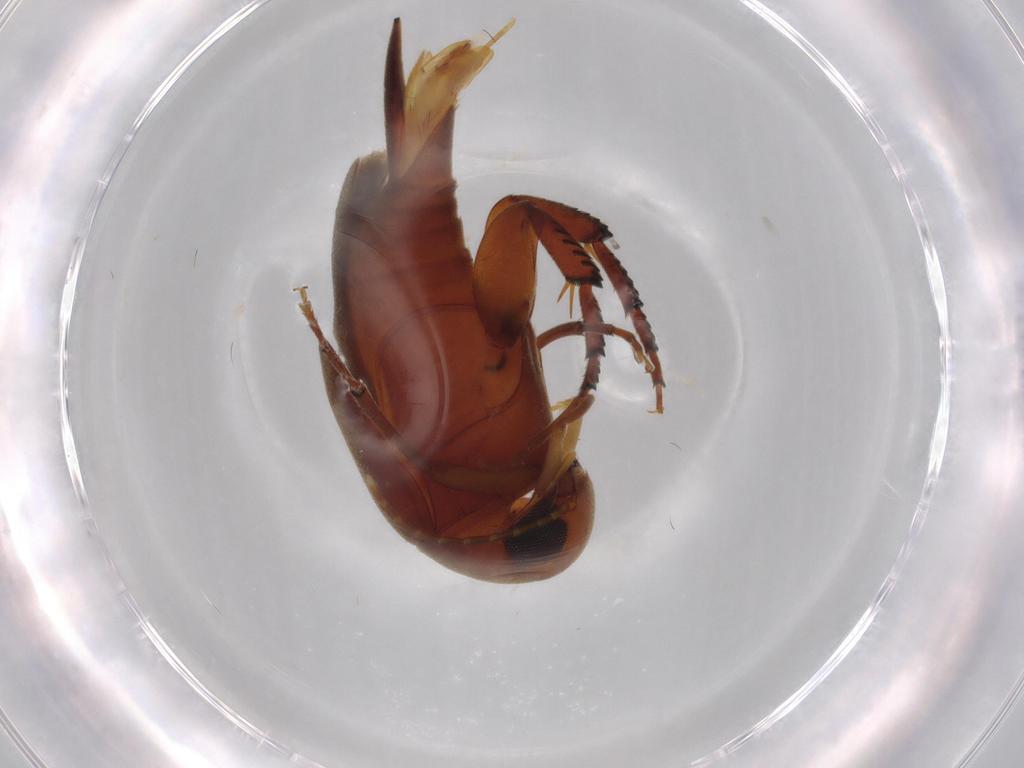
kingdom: Animalia
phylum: Arthropoda
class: Insecta
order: Coleoptera
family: Mordellidae
